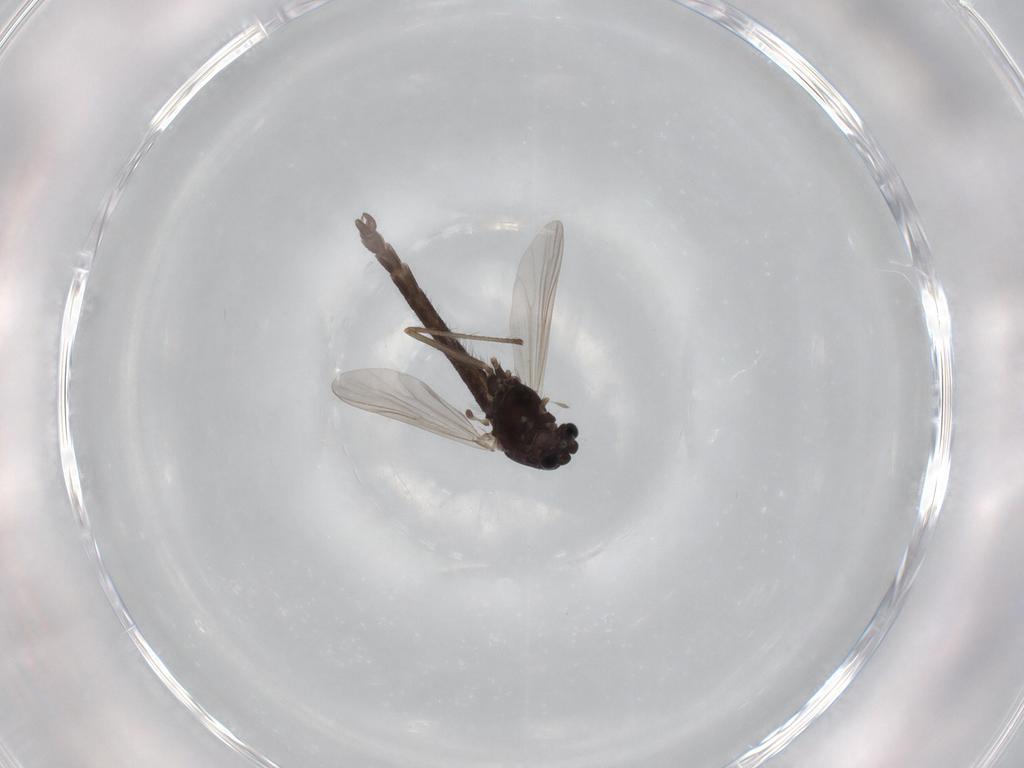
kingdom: Animalia
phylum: Arthropoda
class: Insecta
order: Diptera
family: Chironomidae
